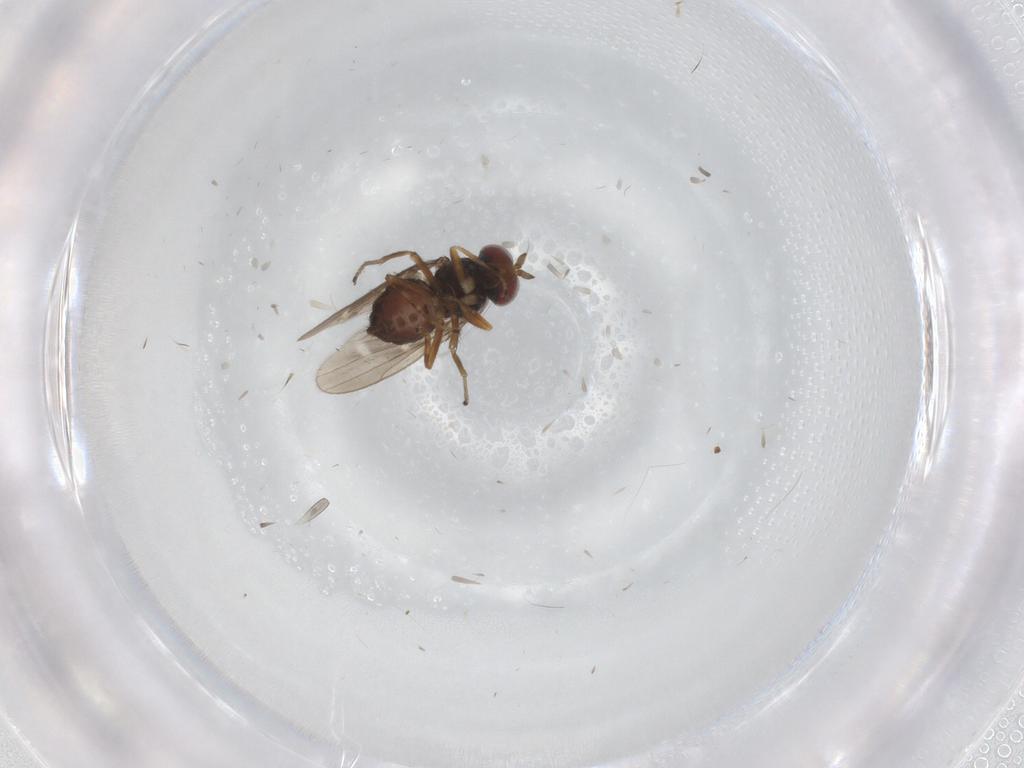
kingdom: Animalia
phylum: Arthropoda
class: Insecta
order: Diptera
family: Ephydridae
